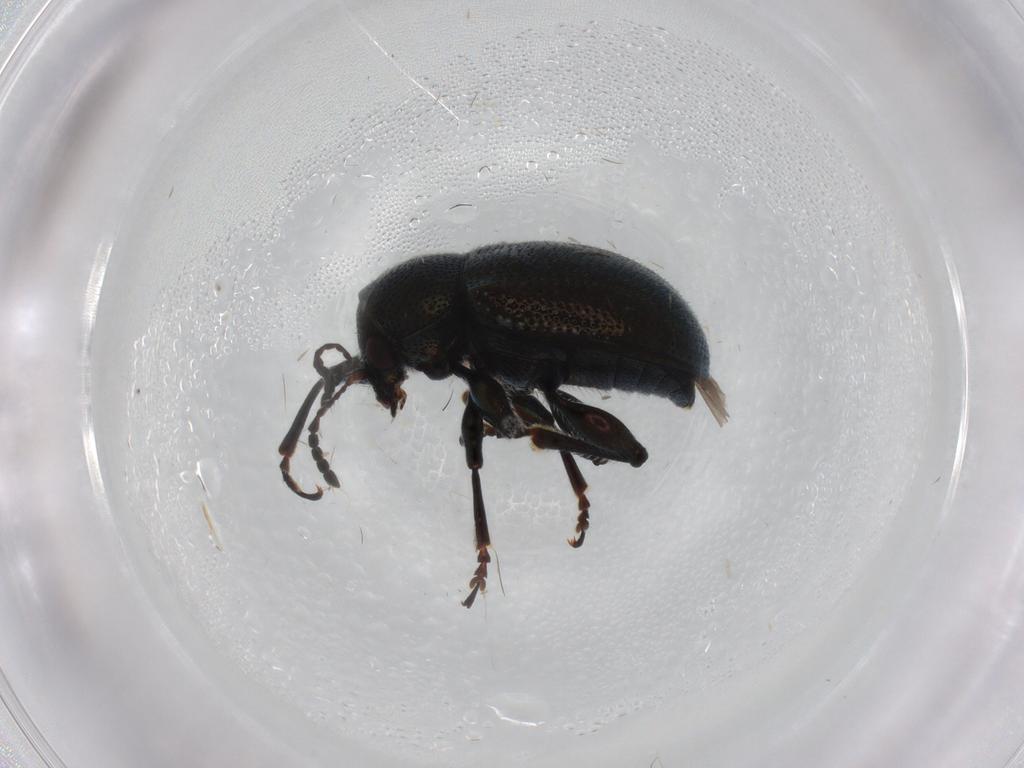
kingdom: Animalia
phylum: Arthropoda
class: Insecta
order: Coleoptera
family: Chrysomelidae
